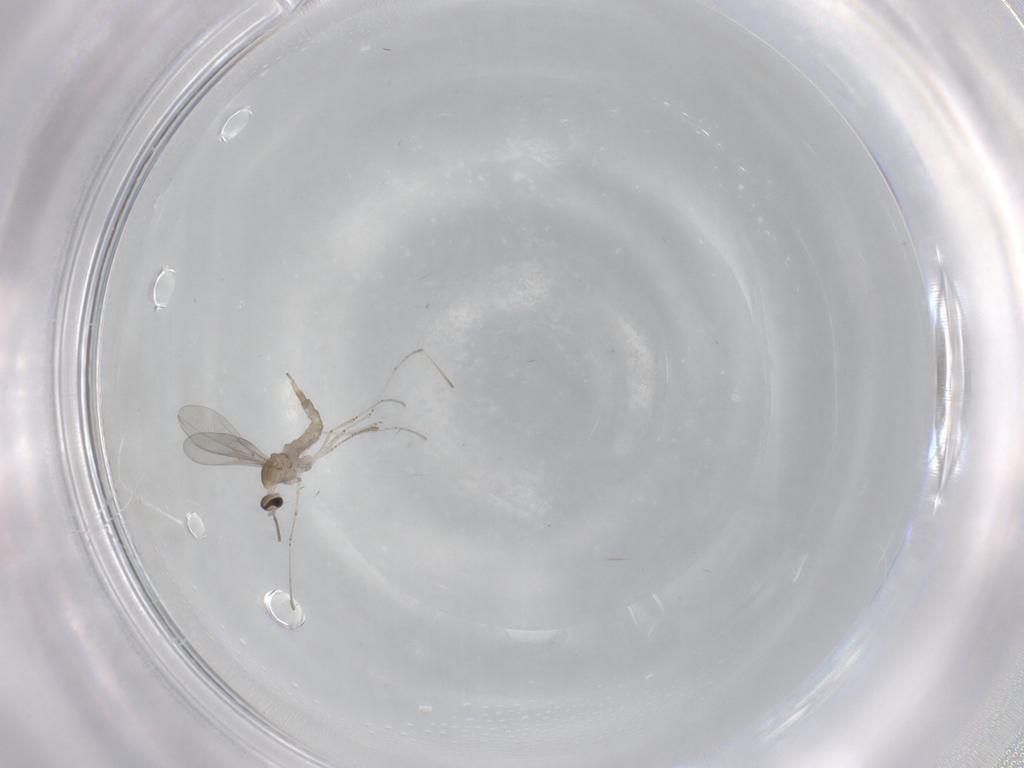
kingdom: Animalia
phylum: Arthropoda
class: Insecta
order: Diptera
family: Cecidomyiidae
